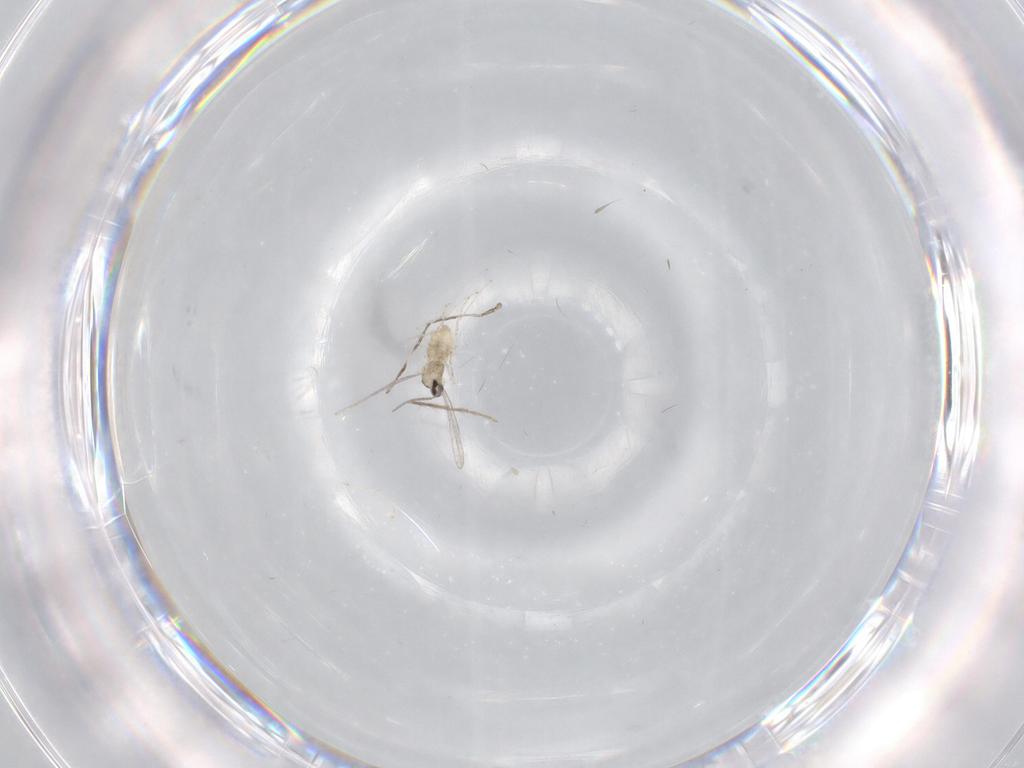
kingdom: Animalia
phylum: Arthropoda
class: Insecta
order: Diptera
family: Cecidomyiidae
